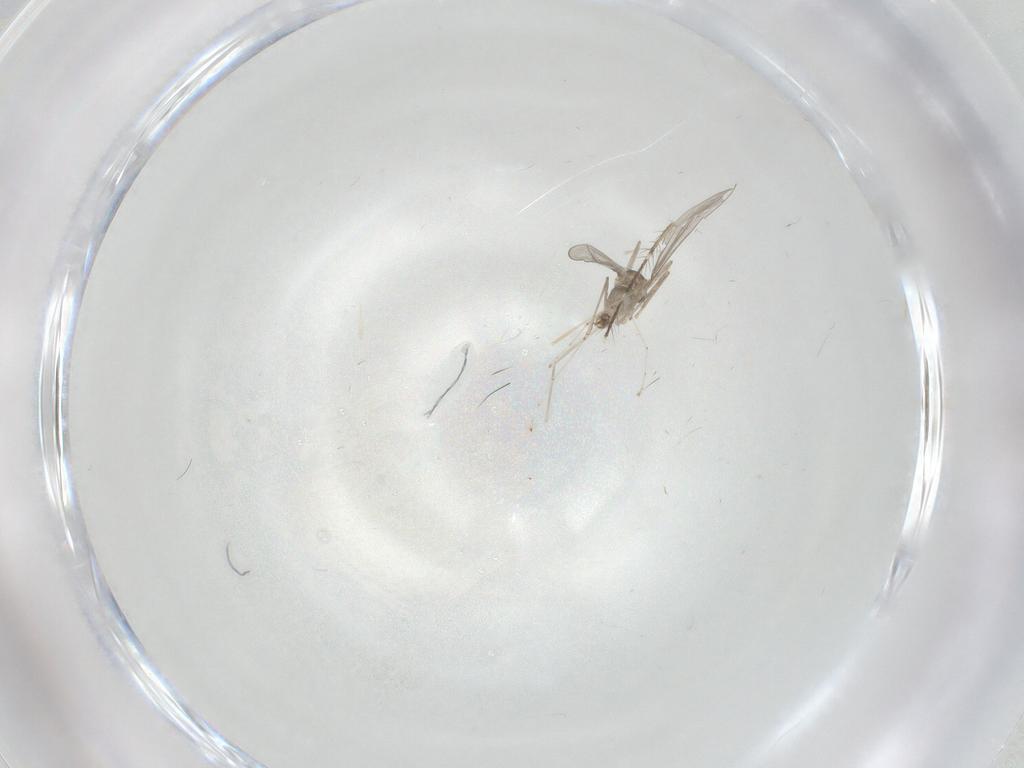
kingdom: Animalia
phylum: Arthropoda
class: Insecta
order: Diptera
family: Cecidomyiidae
